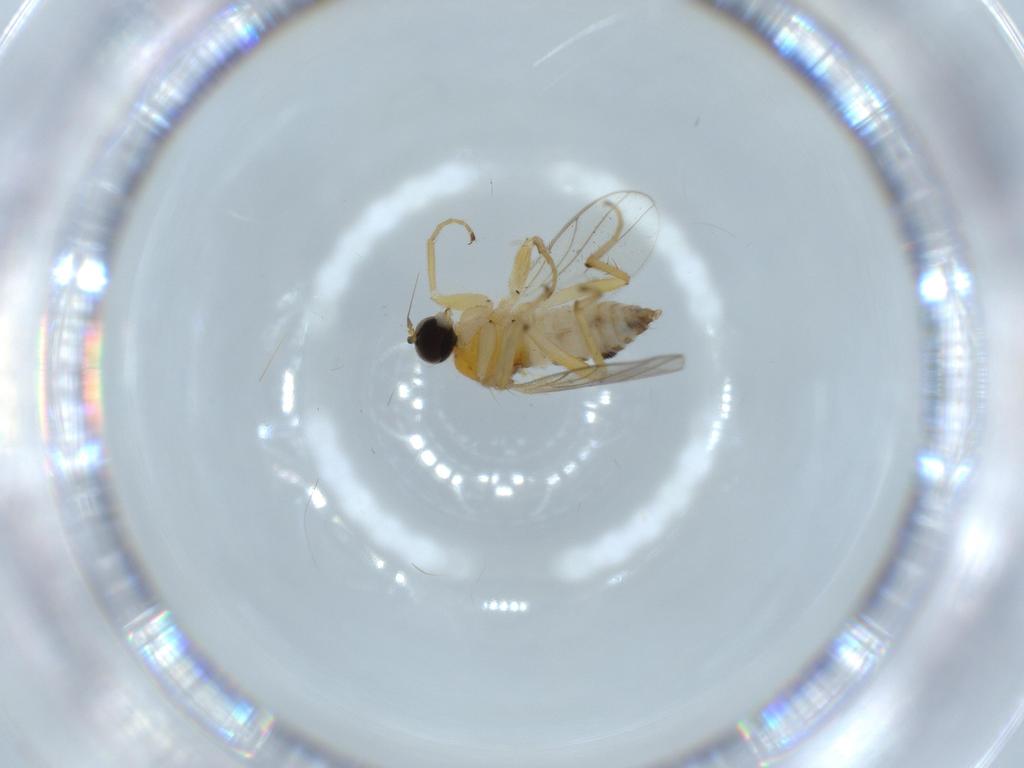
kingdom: Animalia
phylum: Arthropoda
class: Insecta
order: Diptera
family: Hybotidae
